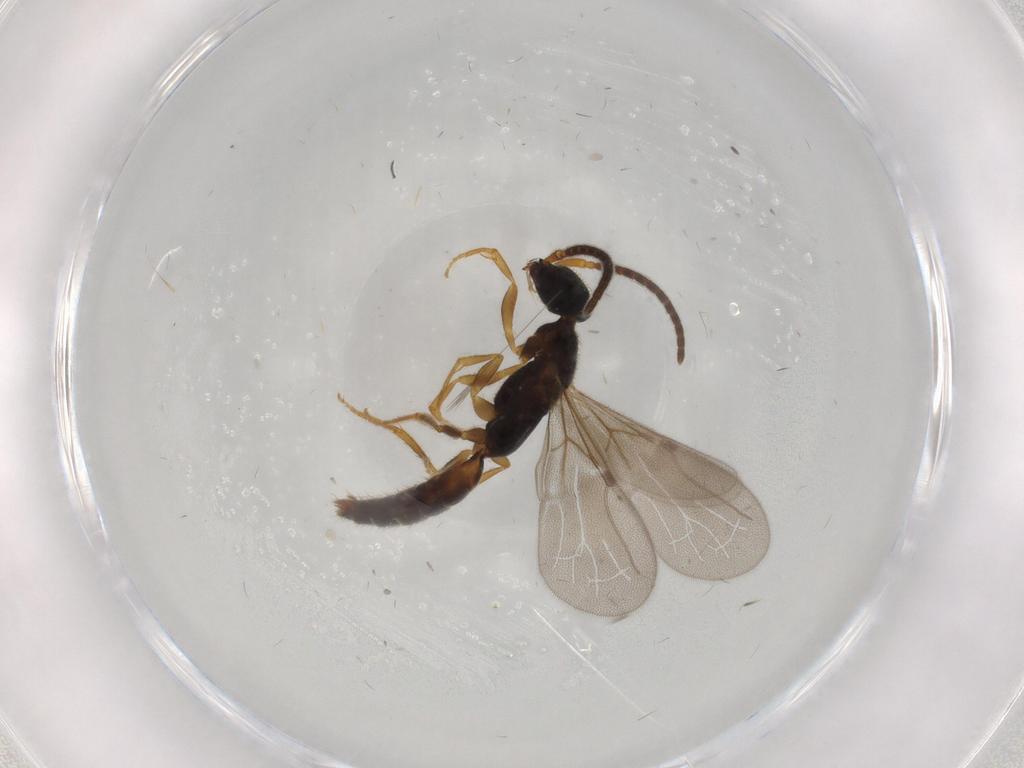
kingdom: Animalia
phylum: Arthropoda
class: Insecta
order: Hymenoptera
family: Bethylidae
